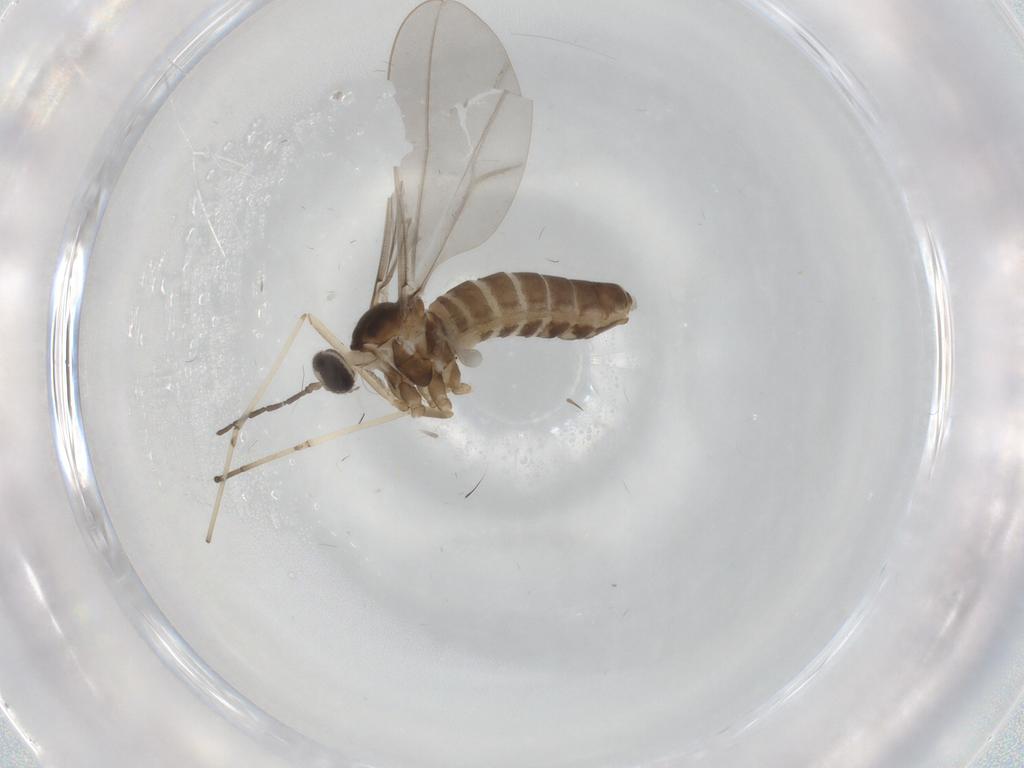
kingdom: Animalia
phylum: Arthropoda
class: Insecta
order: Diptera
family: Cecidomyiidae
